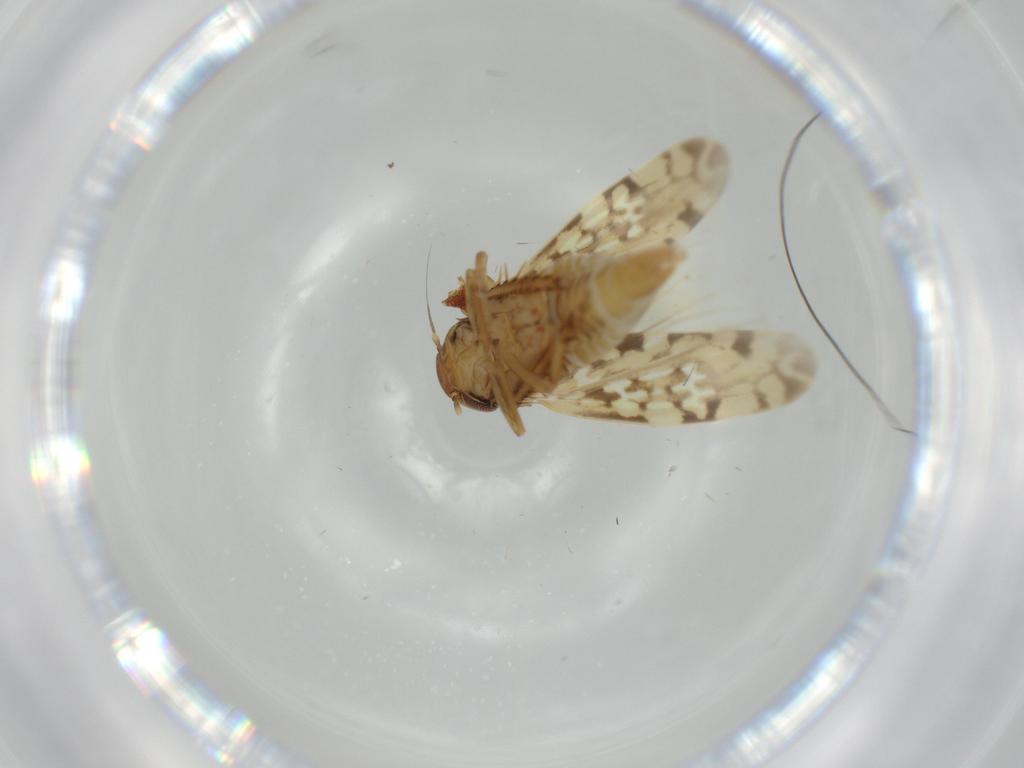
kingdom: Animalia
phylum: Arthropoda
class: Insecta
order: Hemiptera
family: Cicadellidae
